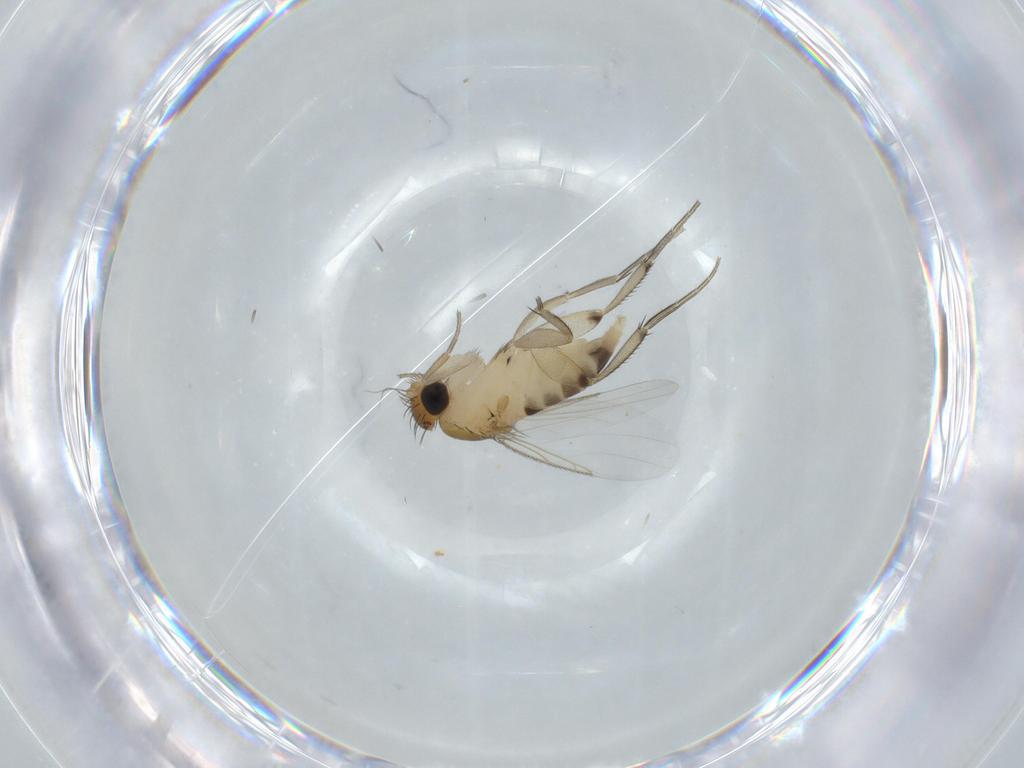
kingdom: Animalia
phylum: Arthropoda
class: Insecta
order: Diptera
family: Phoridae
